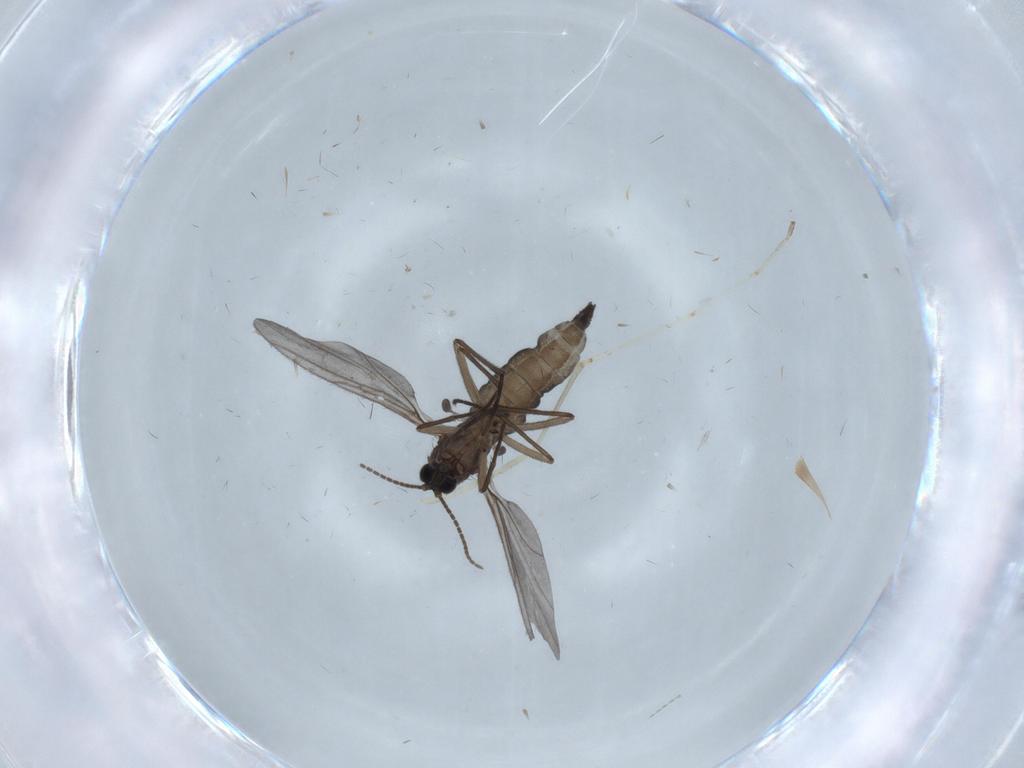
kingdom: Animalia
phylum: Arthropoda
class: Insecta
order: Diptera
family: Sciaridae
